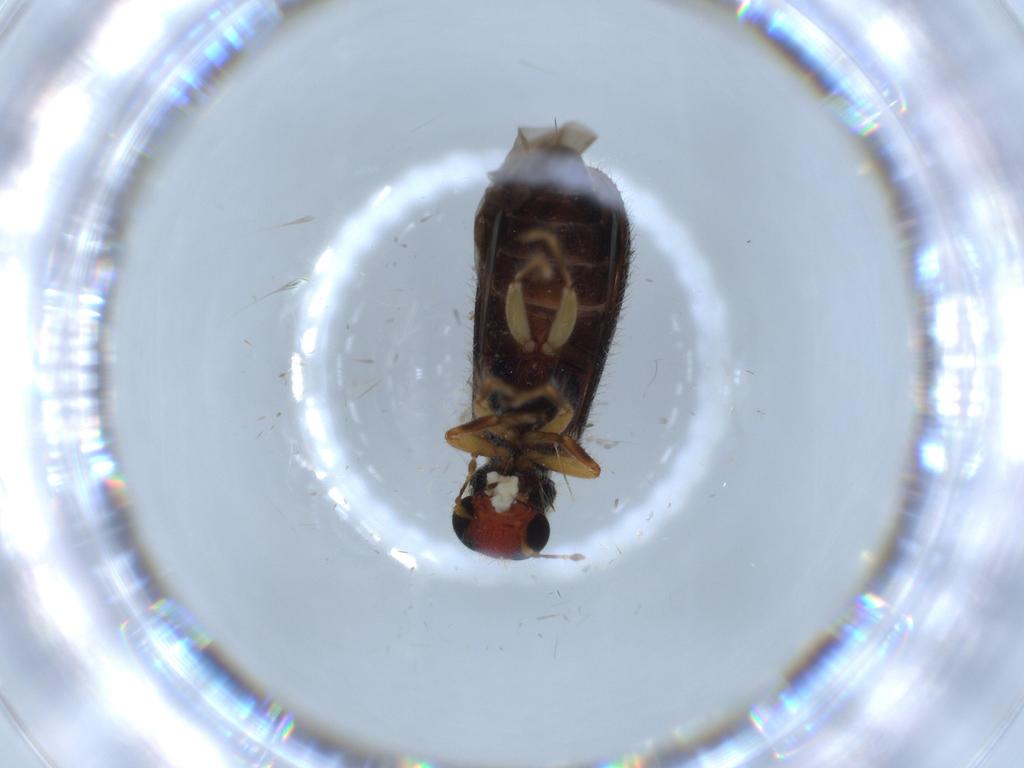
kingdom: Animalia
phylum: Arthropoda
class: Insecta
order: Coleoptera
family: Cleridae
